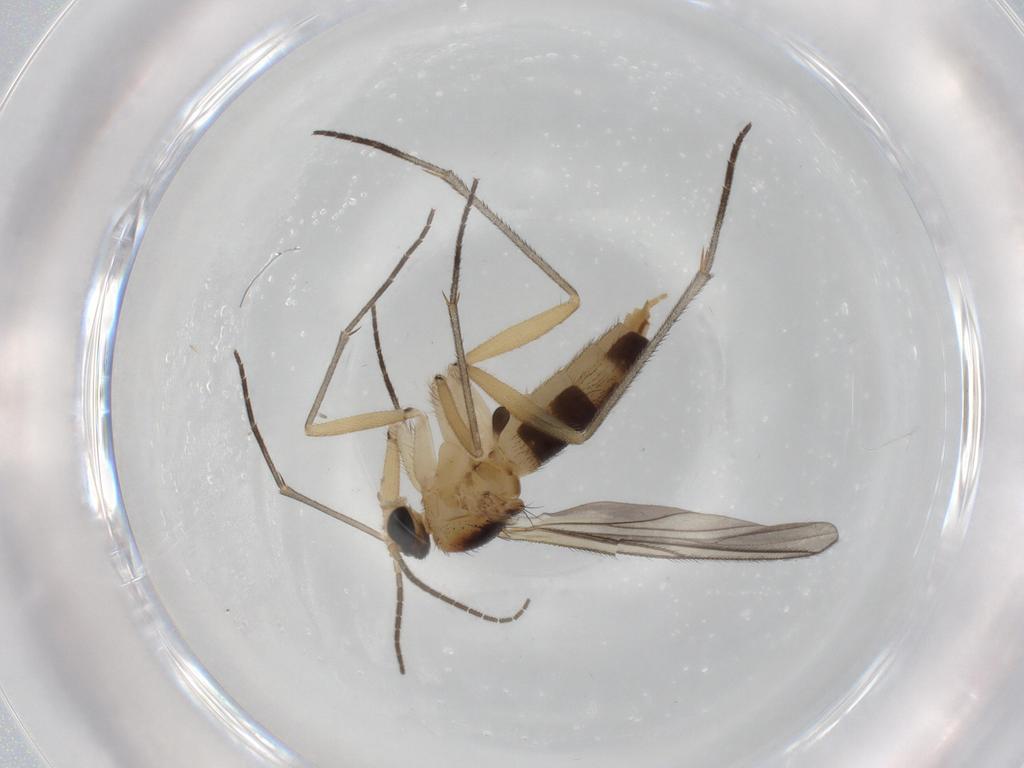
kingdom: Animalia
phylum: Arthropoda
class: Insecta
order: Diptera
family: Sciaridae
